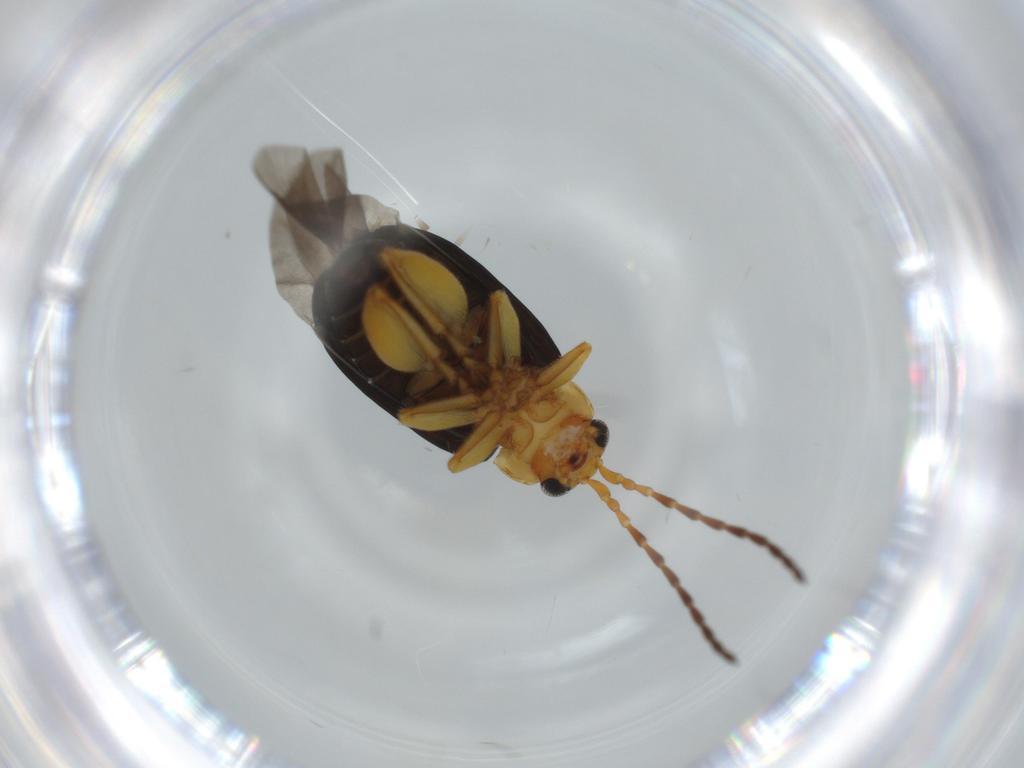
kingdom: Animalia
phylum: Arthropoda
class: Insecta
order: Coleoptera
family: Chrysomelidae
